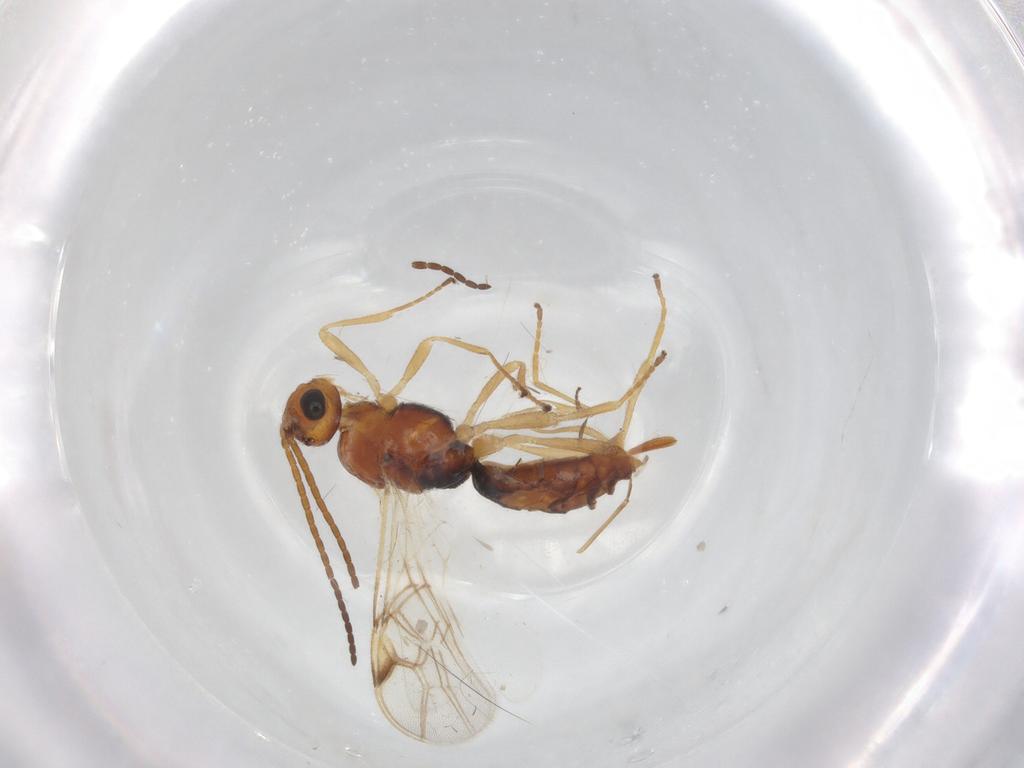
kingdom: Animalia
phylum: Arthropoda
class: Insecta
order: Hymenoptera
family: Braconidae
